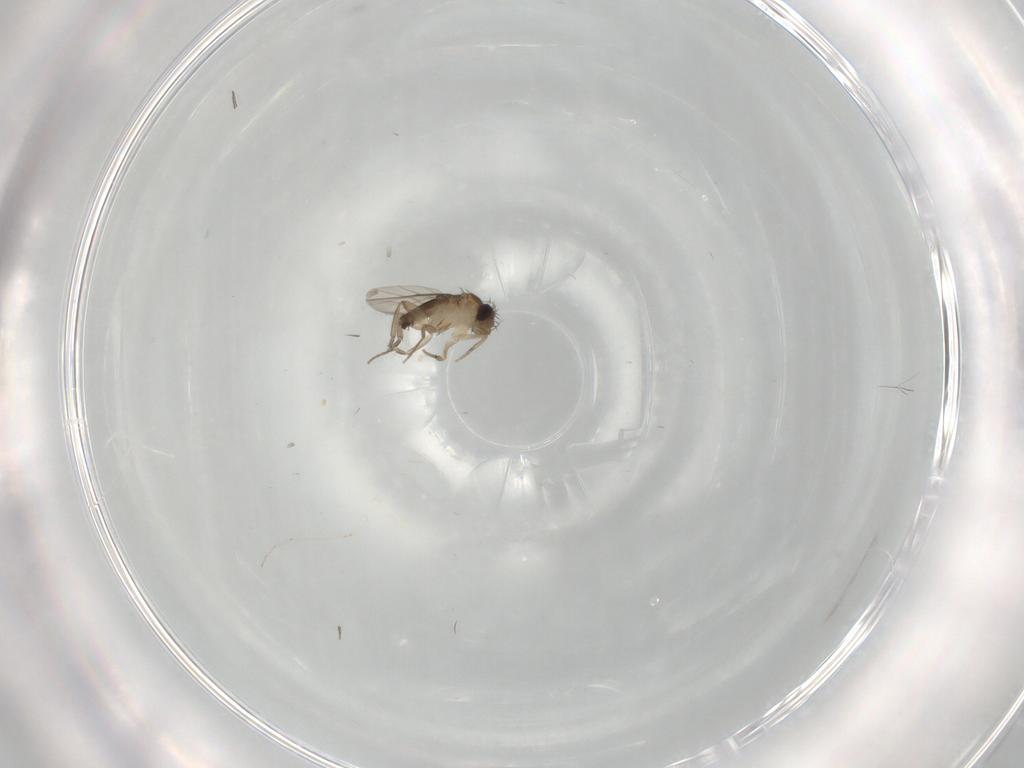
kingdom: Animalia
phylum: Arthropoda
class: Insecta
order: Diptera
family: Phoridae
